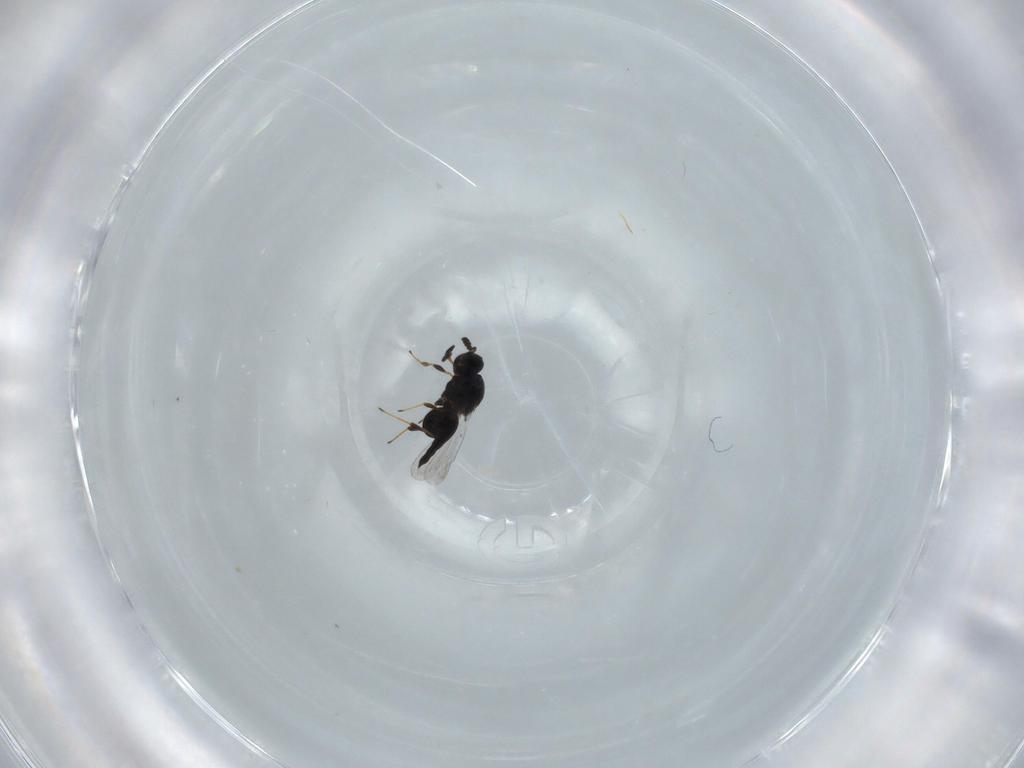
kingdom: Animalia
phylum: Arthropoda
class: Insecta
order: Hymenoptera
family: Platygastridae
